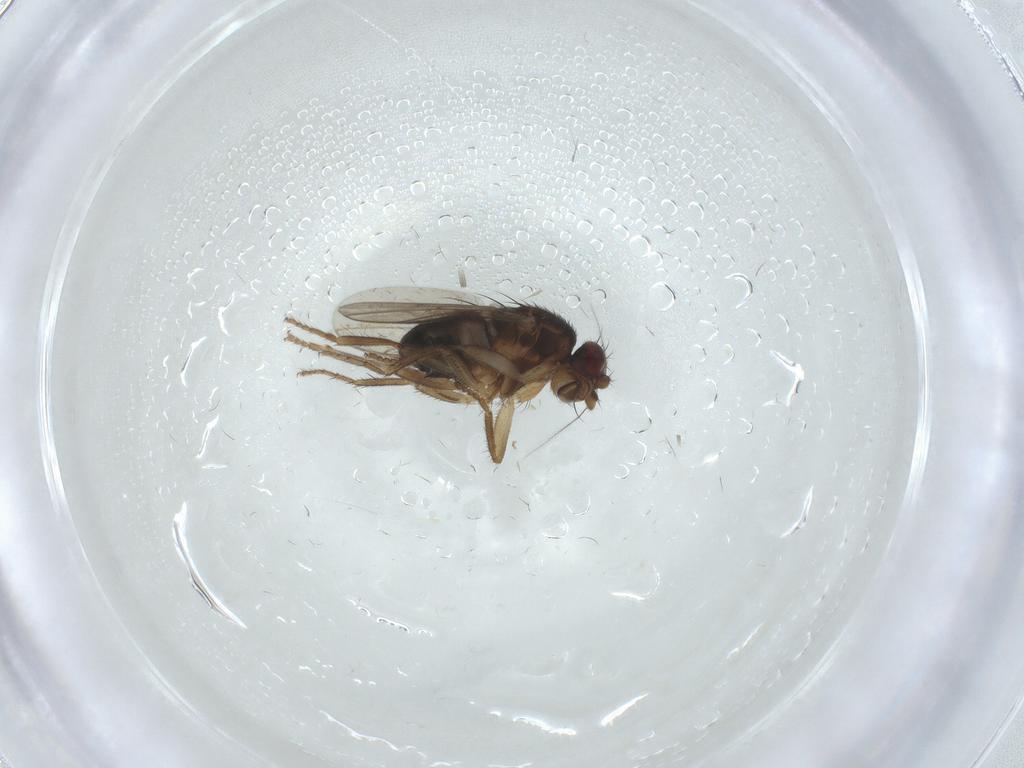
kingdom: Animalia
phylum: Arthropoda
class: Insecta
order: Diptera
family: Sphaeroceridae
